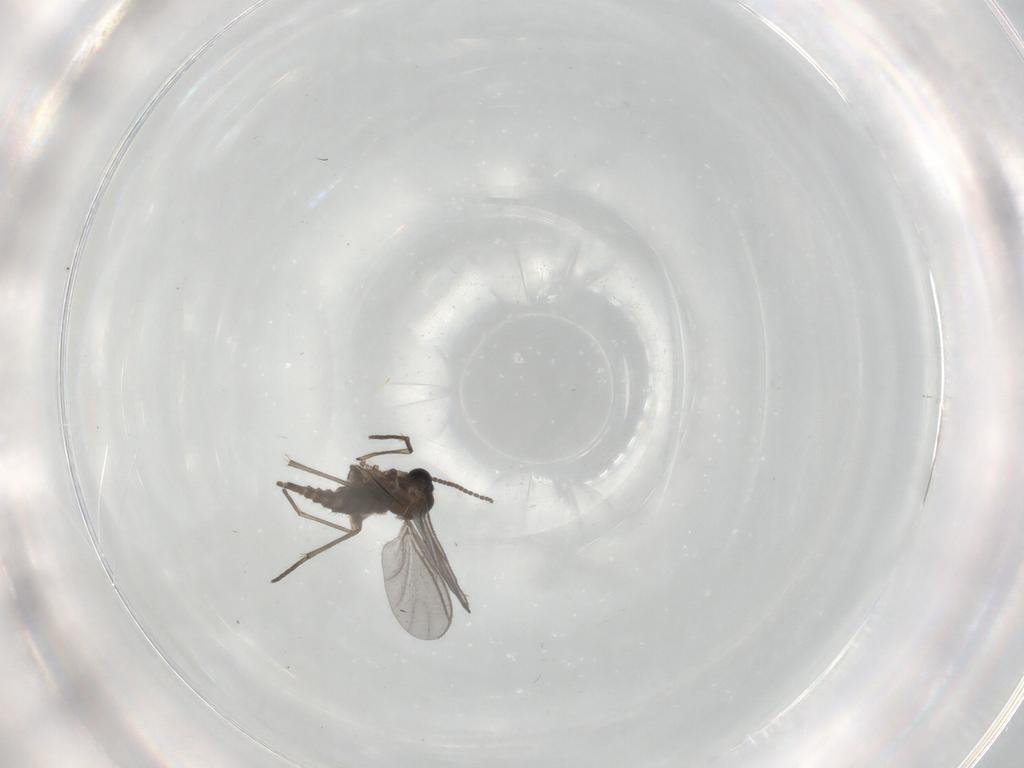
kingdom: Animalia
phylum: Arthropoda
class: Insecta
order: Diptera
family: Sciaridae
